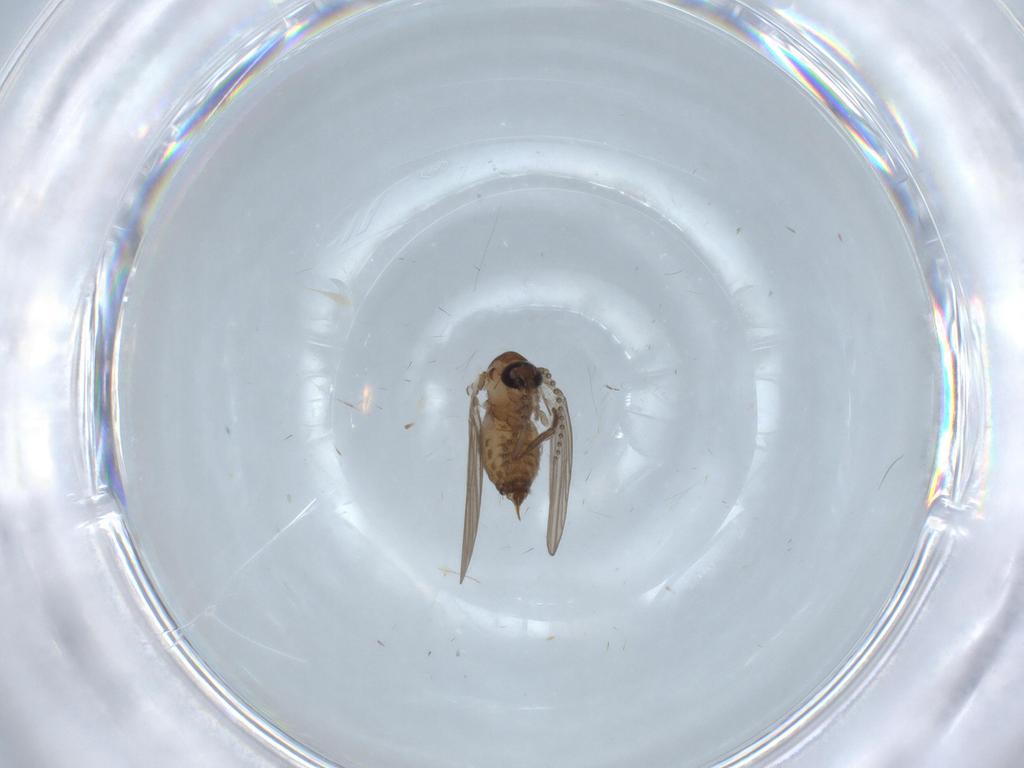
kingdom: Animalia
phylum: Arthropoda
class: Insecta
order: Diptera
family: Psychodidae
